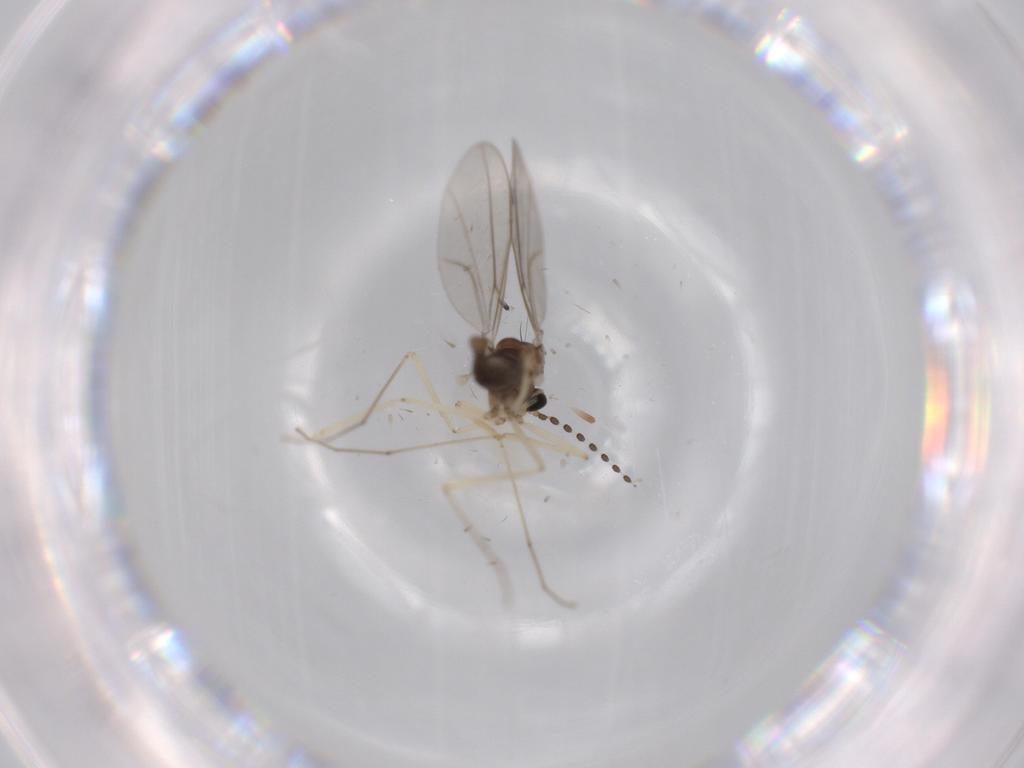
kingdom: Animalia
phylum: Arthropoda
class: Insecta
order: Diptera
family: Cecidomyiidae
